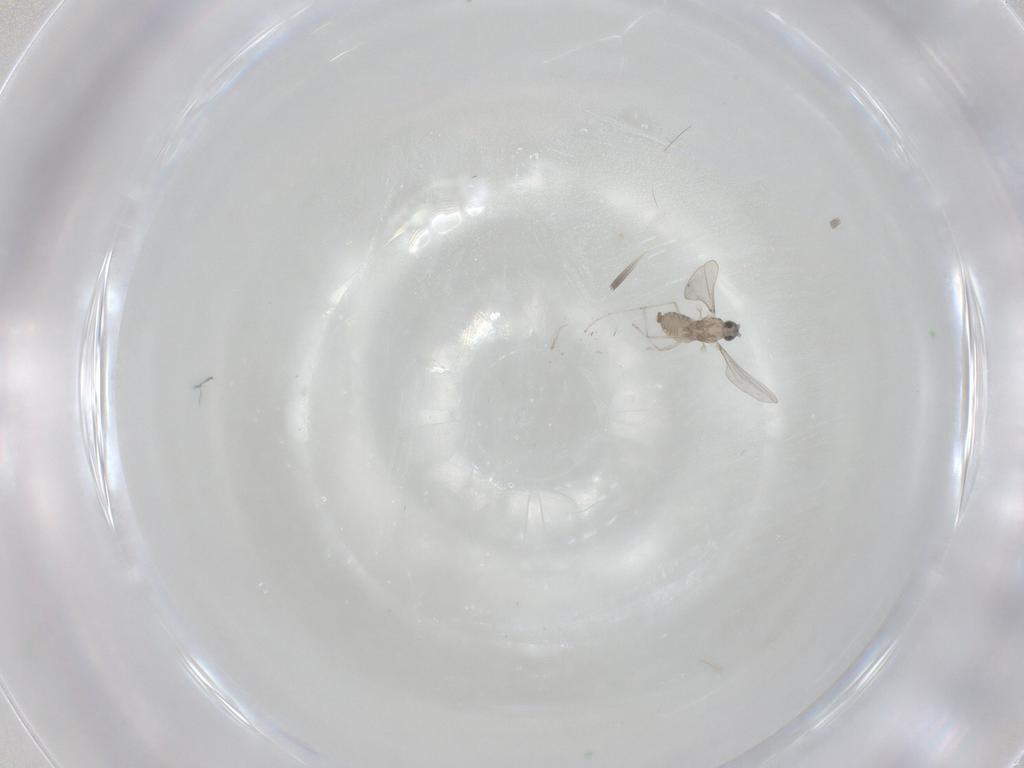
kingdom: Animalia
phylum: Arthropoda
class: Insecta
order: Diptera
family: Cecidomyiidae
